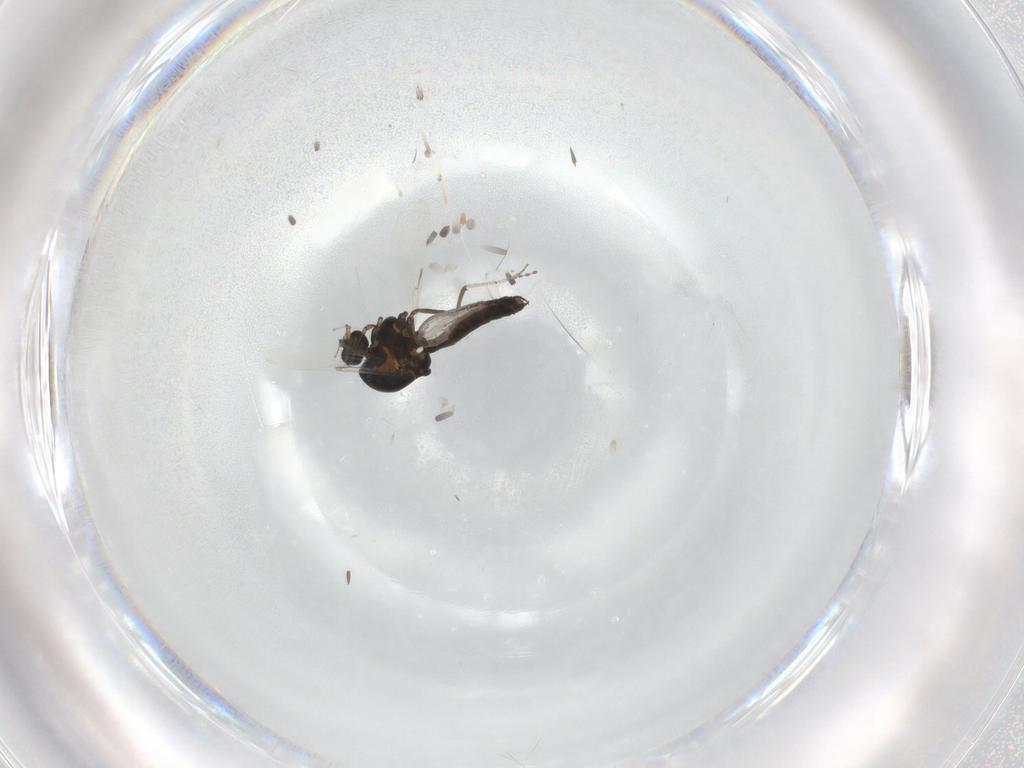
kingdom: Animalia
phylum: Arthropoda
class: Insecta
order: Diptera
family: Ceratopogonidae
